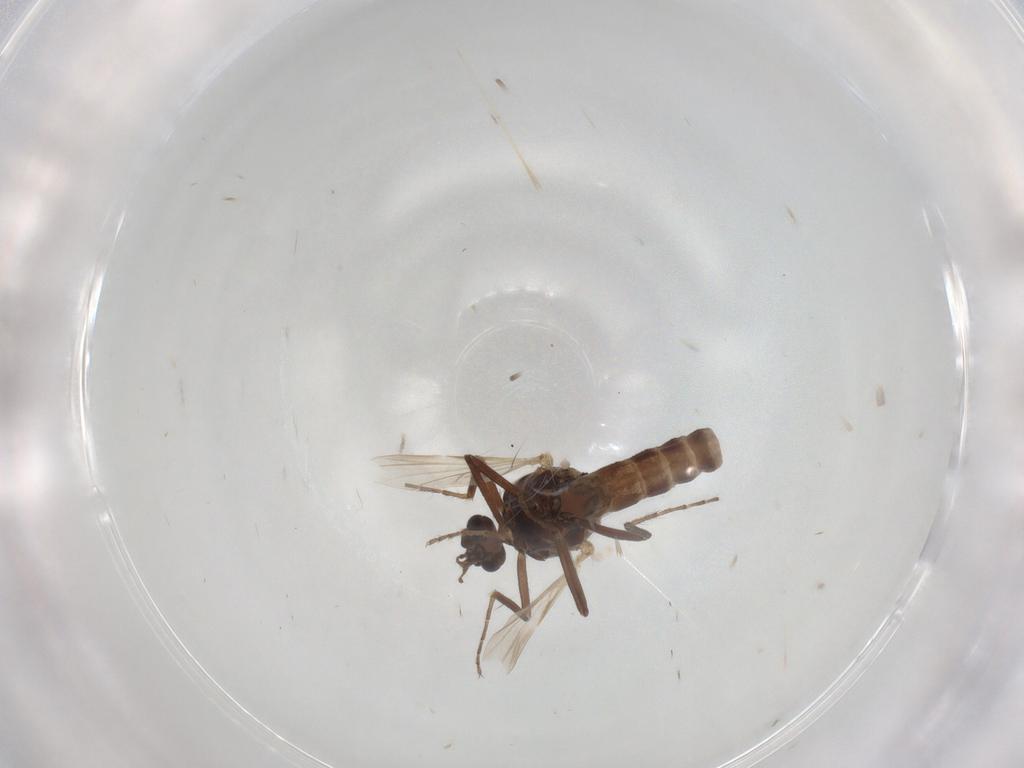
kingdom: Animalia
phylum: Arthropoda
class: Insecta
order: Diptera
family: Ceratopogonidae
